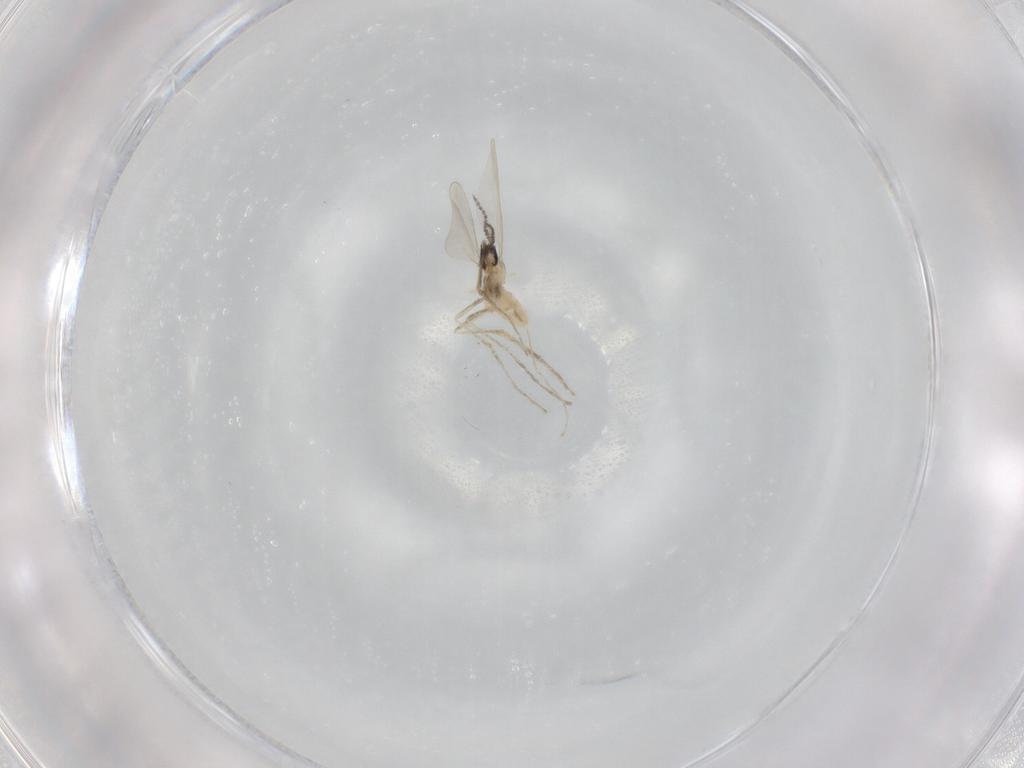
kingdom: Animalia
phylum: Arthropoda
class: Insecta
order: Diptera
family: Cecidomyiidae
